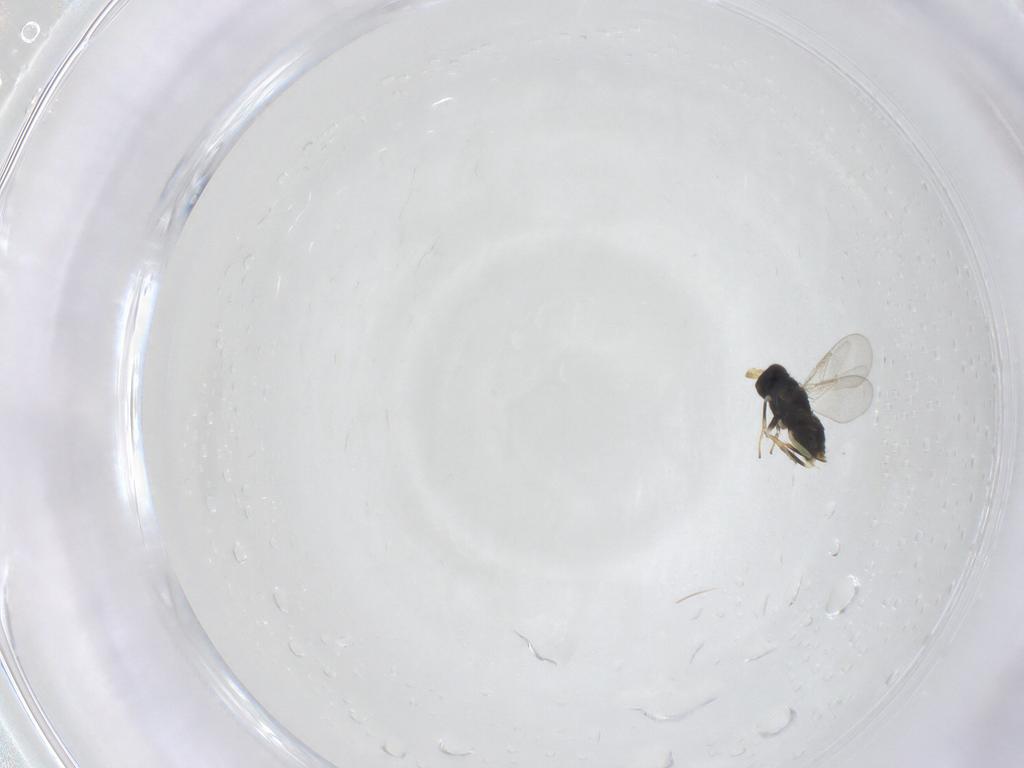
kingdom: Animalia
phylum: Arthropoda
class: Insecta
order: Hymenoptera
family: Aphelinidae
